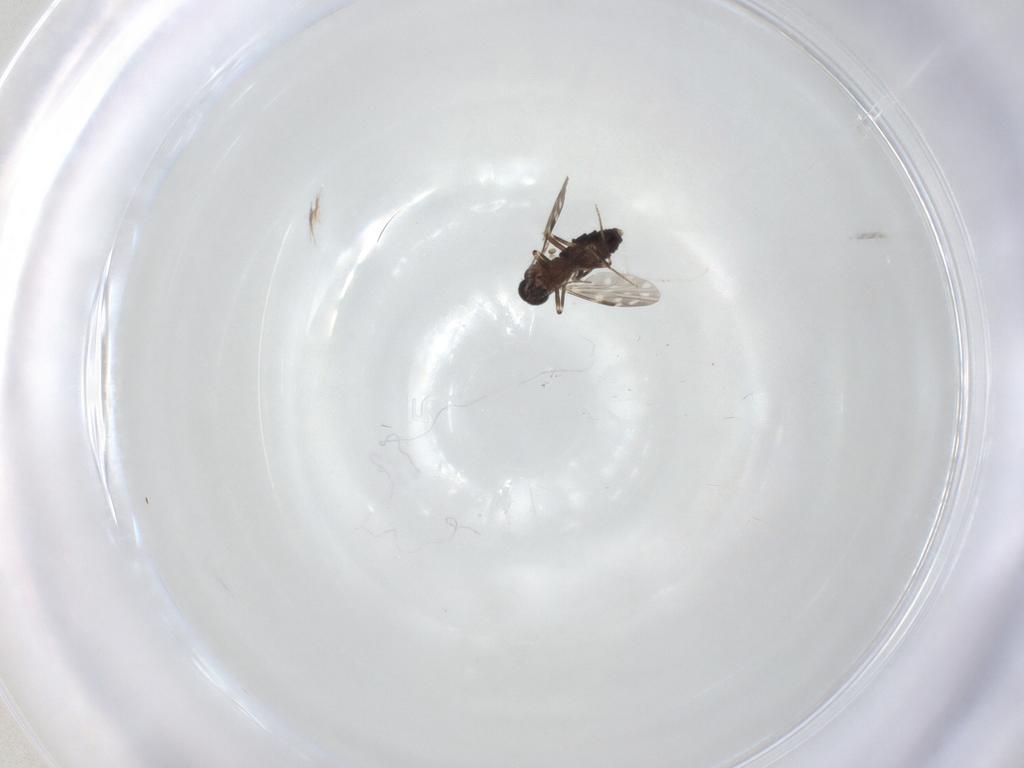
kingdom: Animalia
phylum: Arthropoda
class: Insecta
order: Diptera
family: Cecidomyiidae
